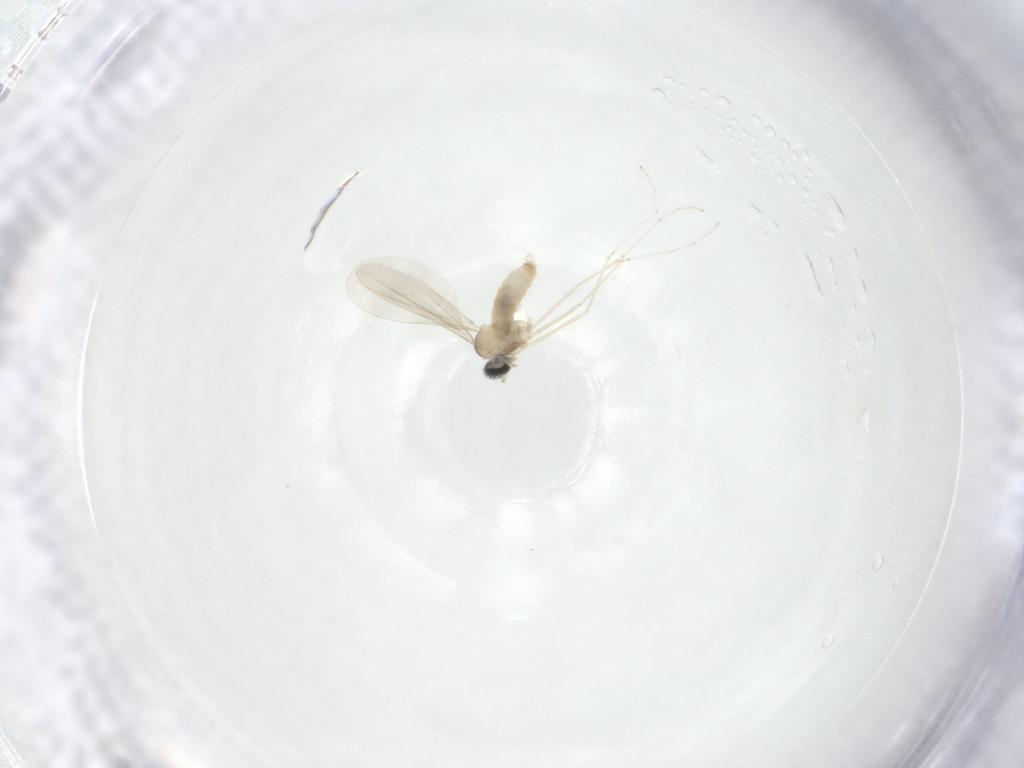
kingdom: Animalia
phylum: Arthropoda
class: Insecta
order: Diptera
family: Cecidomyiidae
